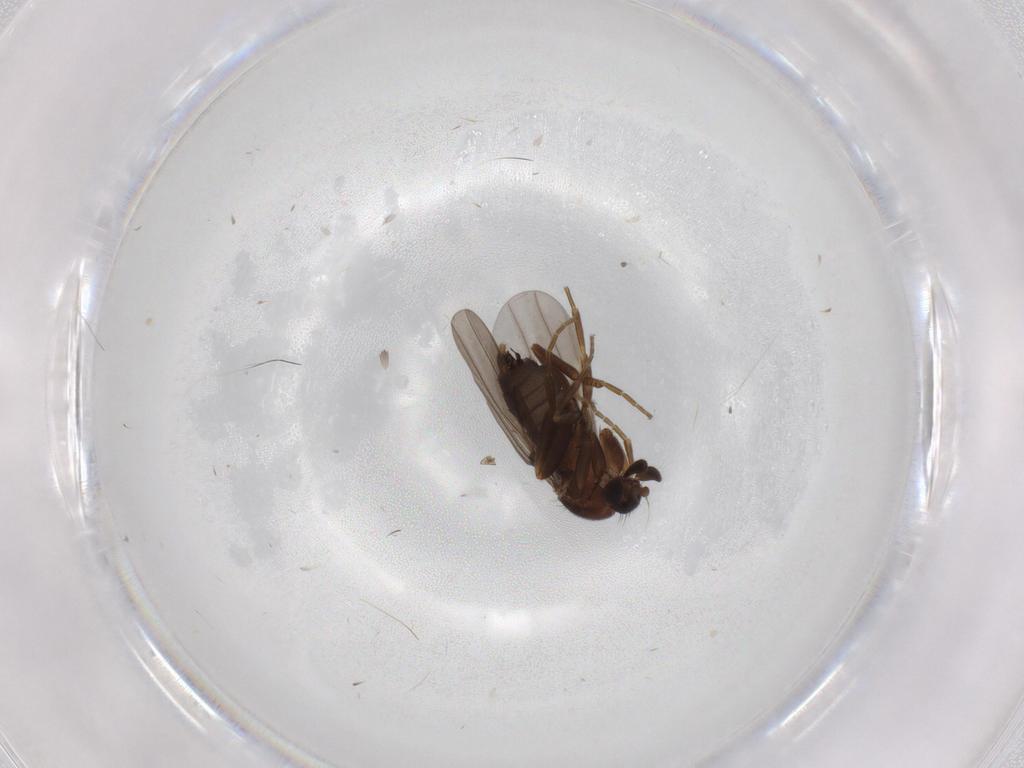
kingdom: Animalia
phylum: Arthropoda
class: Insecta
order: Diptera
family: Phoridae
